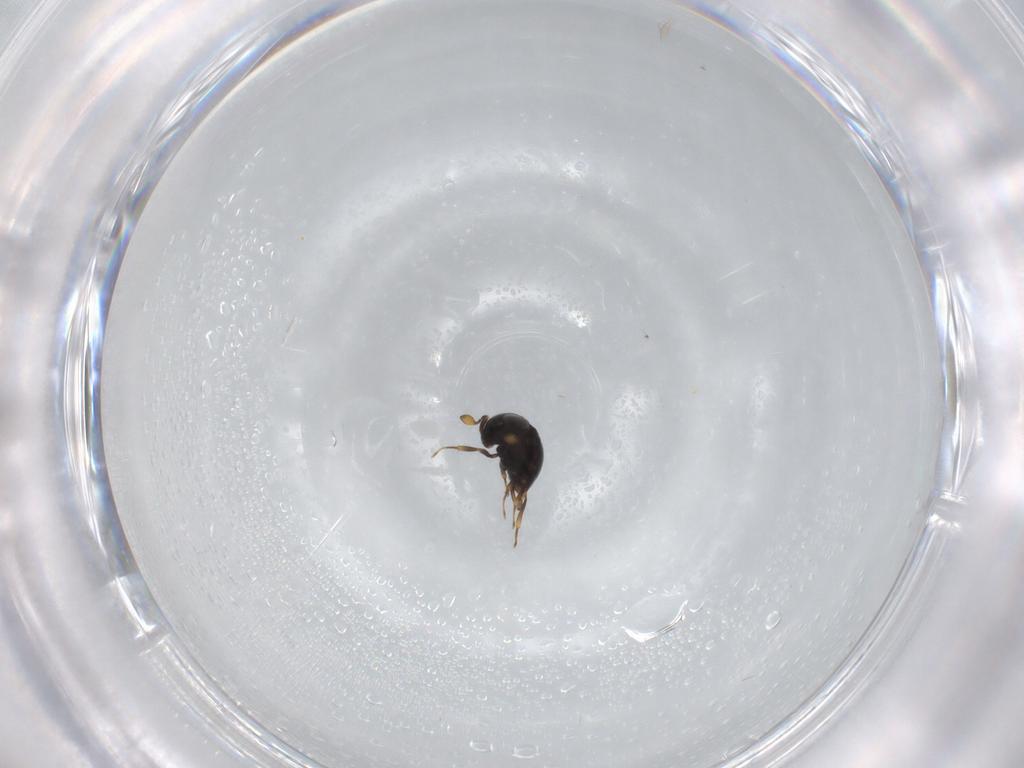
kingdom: Animalia
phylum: Arthropoda
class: Insecta
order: Hymenoptera
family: Scelionidae
